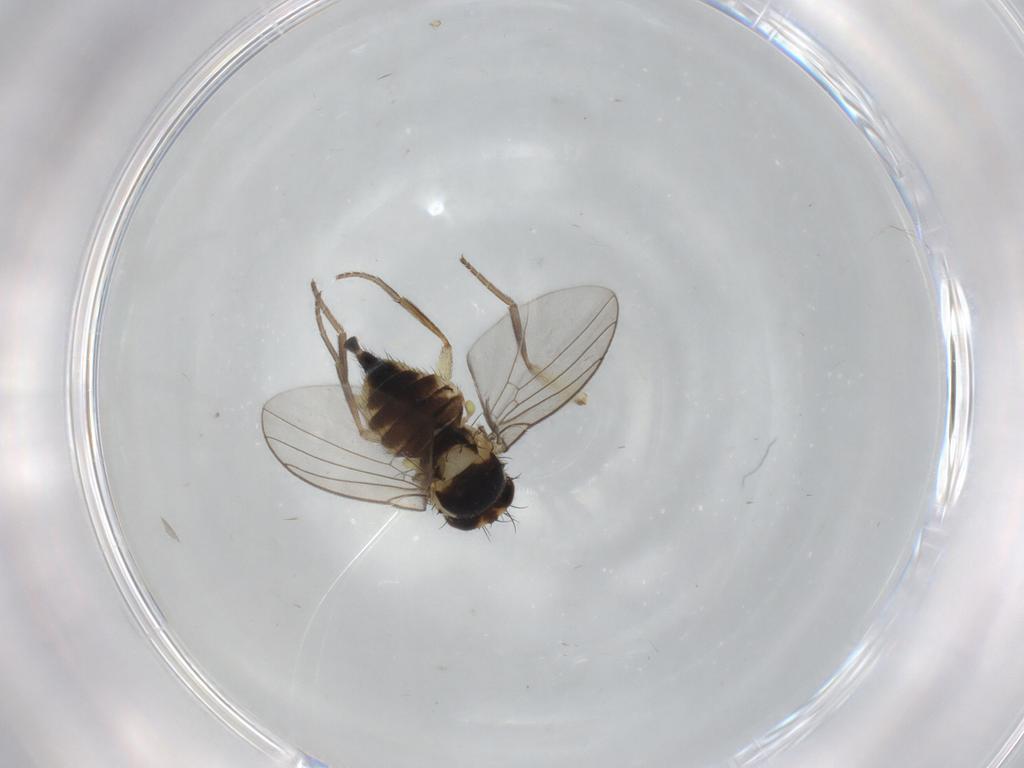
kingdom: Animalia
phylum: Arthropoda
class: Insecta
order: Diptera
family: Agromyzidae
